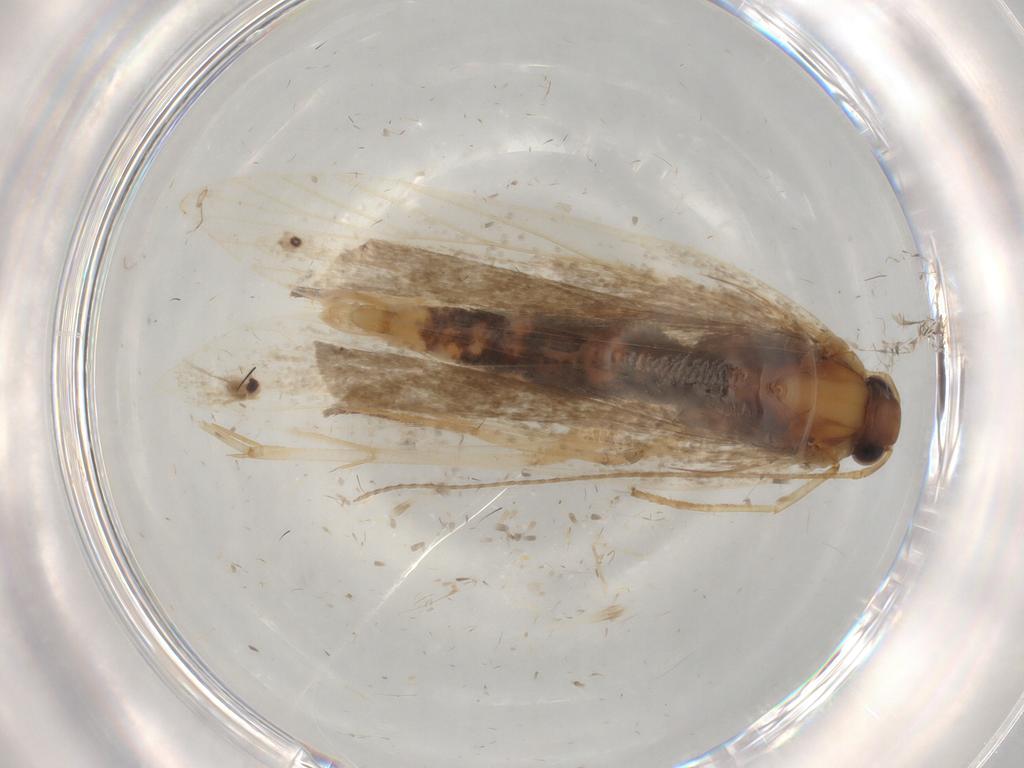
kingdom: Animalia
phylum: Arthropoda
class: Insecta
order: Lepidoptera
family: Gelechiidae
